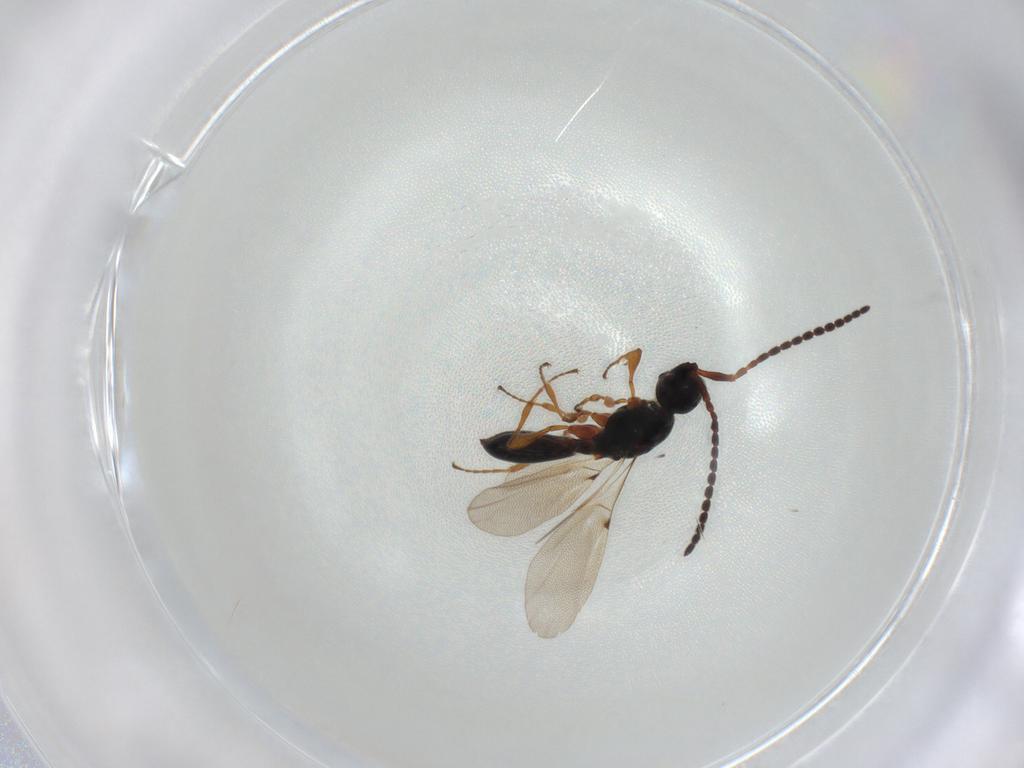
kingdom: Animalia
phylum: Arthropoda
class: Insecta
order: Hymenoptera
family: Diapriidae
